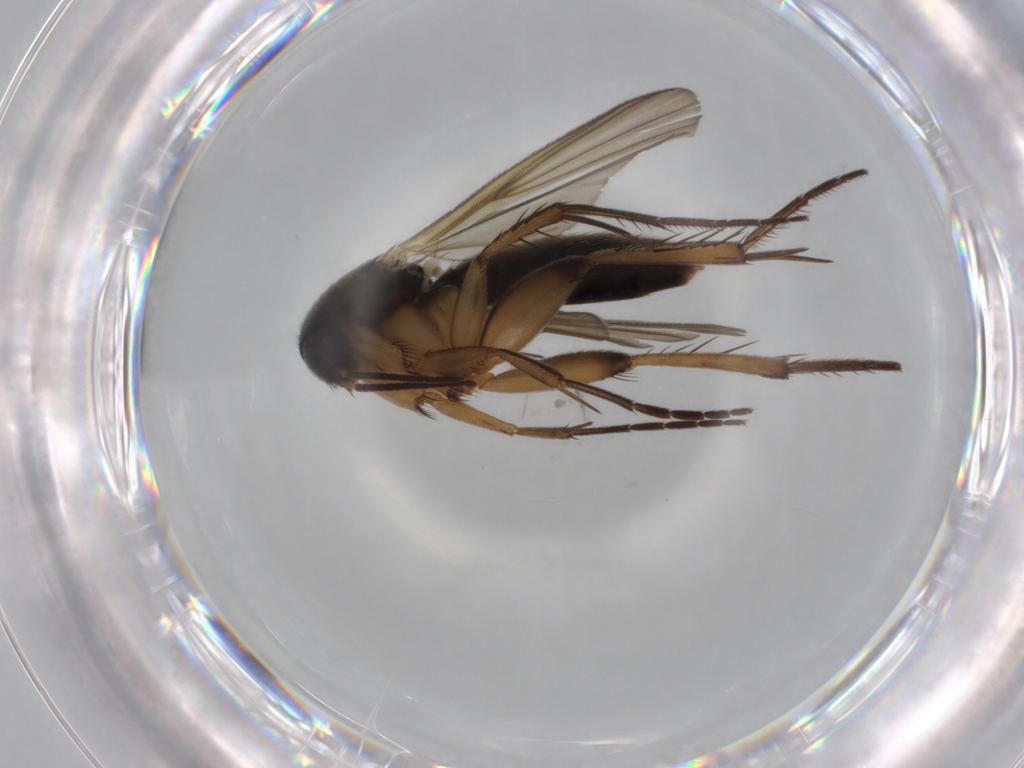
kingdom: Animalia
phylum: Arthropoda
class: Insecta
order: Diptera
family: Mycetophilidae
